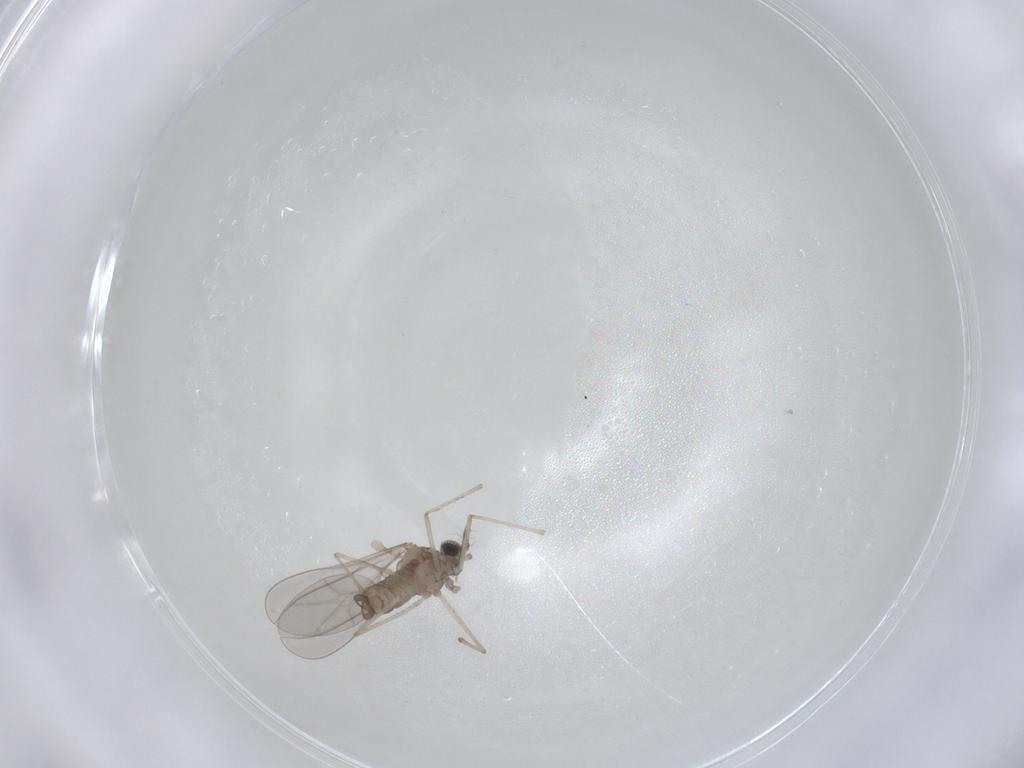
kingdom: Animalia
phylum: Arthropoda
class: Insecta
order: Diptera
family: Cecidomyiidae
